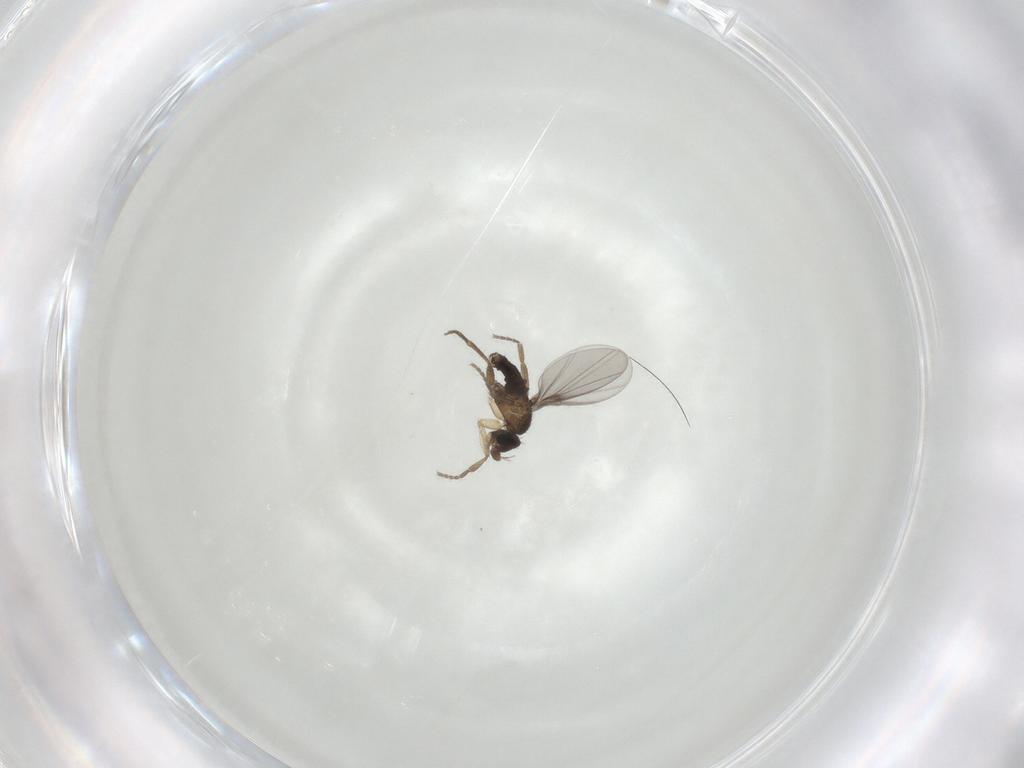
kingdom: Animalia
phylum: Arthropoda
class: Insecta
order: Diptera
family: Phoridae
